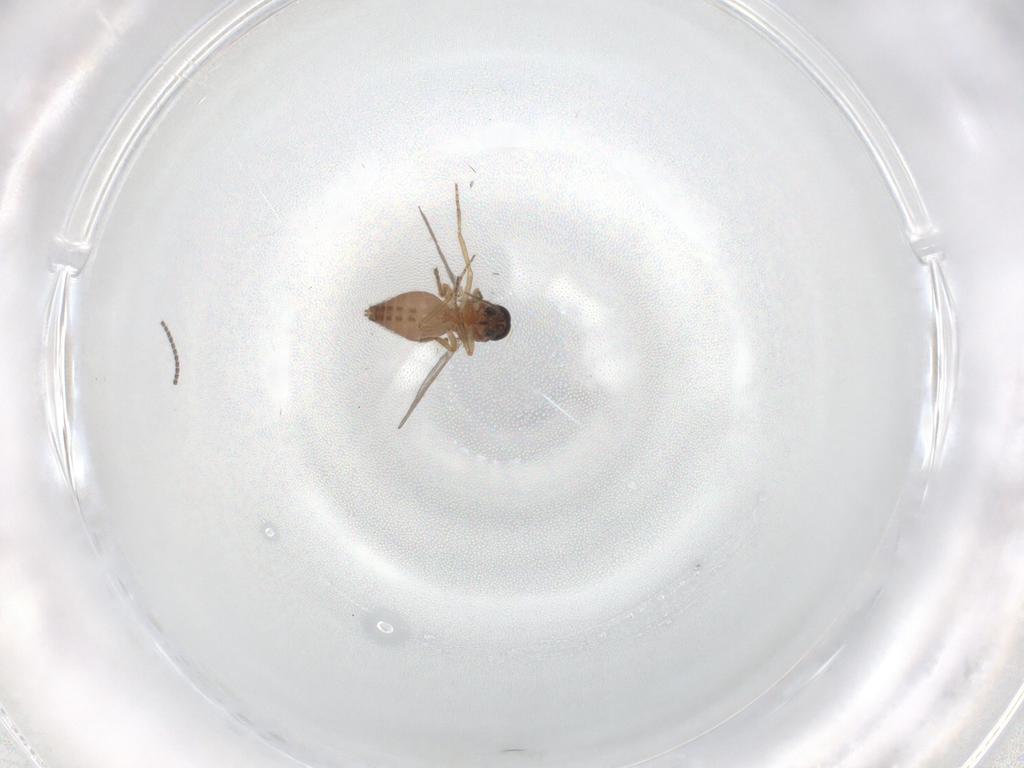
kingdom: Animalia
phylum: Arthropoda
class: Insecta
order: Diptera
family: Ceratopogonidae
